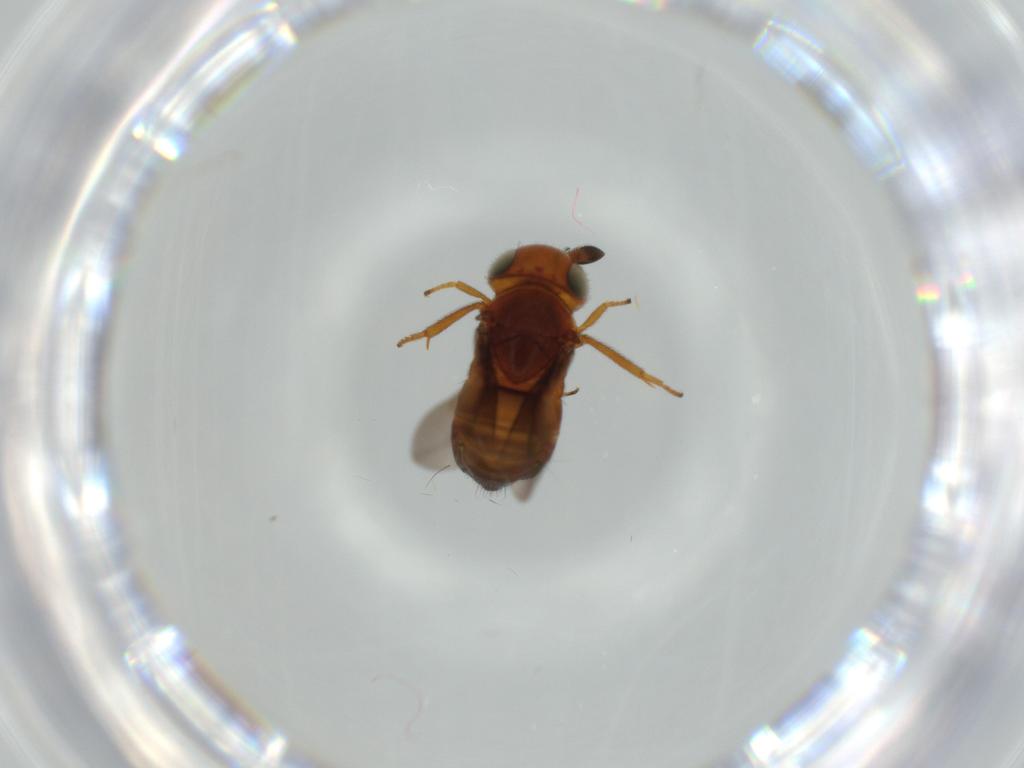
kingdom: Animalia
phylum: Arthropoda
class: Insecta
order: Hymenoptera
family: Encyrtidae
